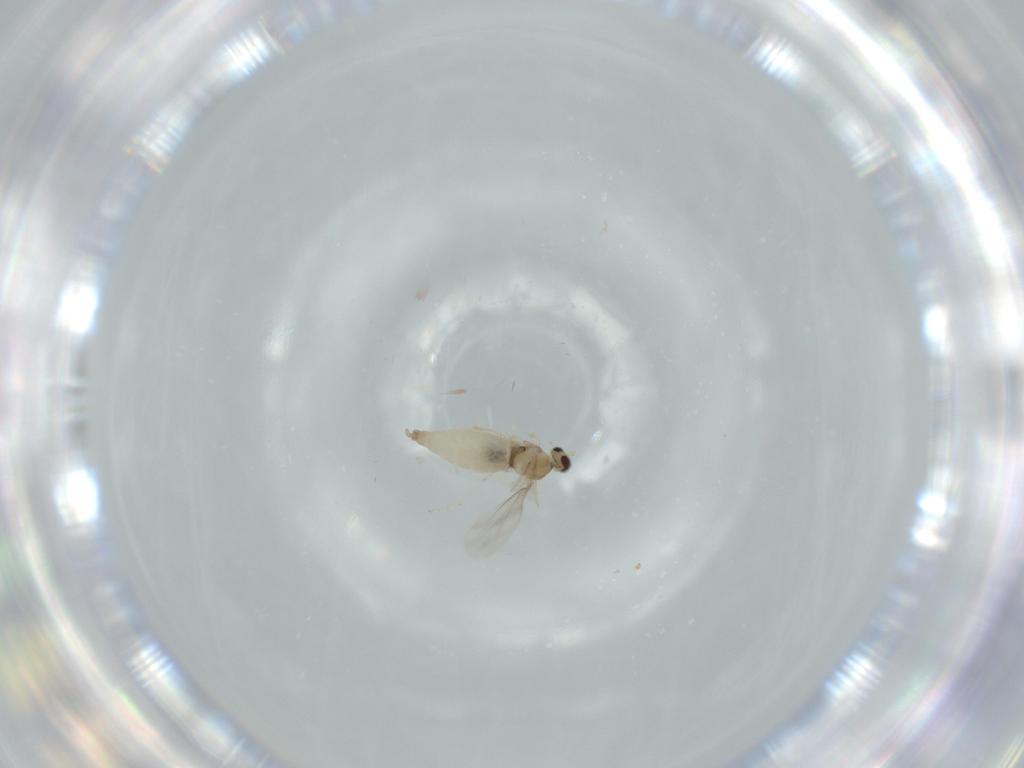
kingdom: Animalia
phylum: Arthropoda
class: Insecta
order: Diptera
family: Cecidomyiidae
